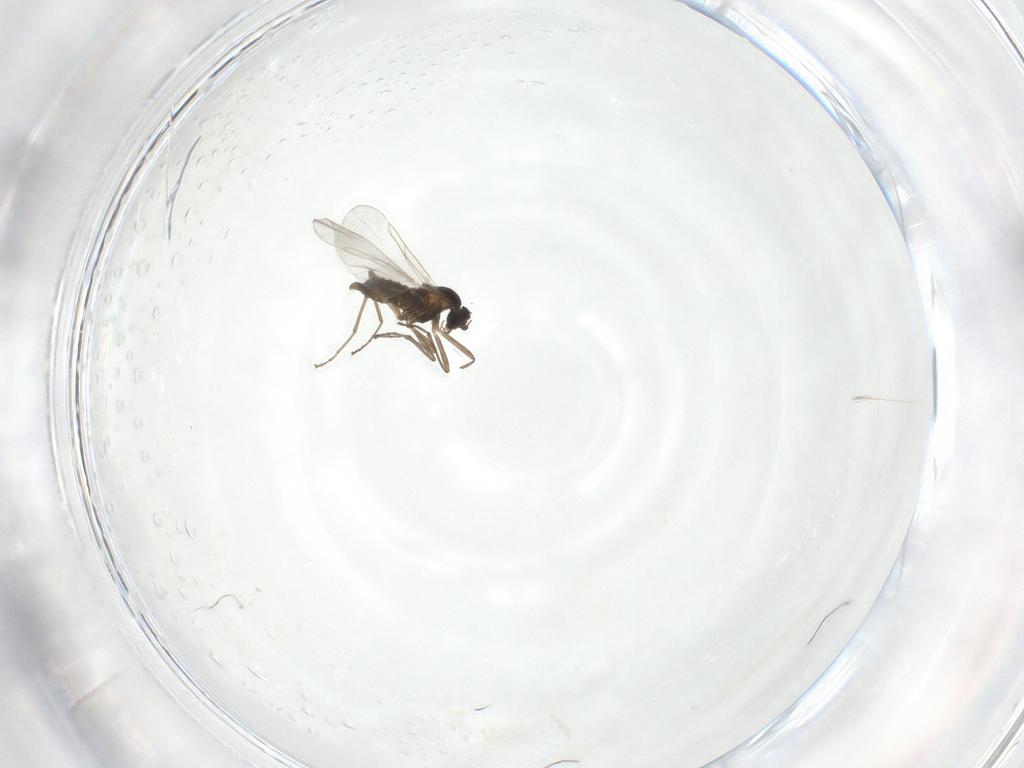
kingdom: Animalia
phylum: Arthropoda
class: Insecta
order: Diptera
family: Cecidomyiidae
